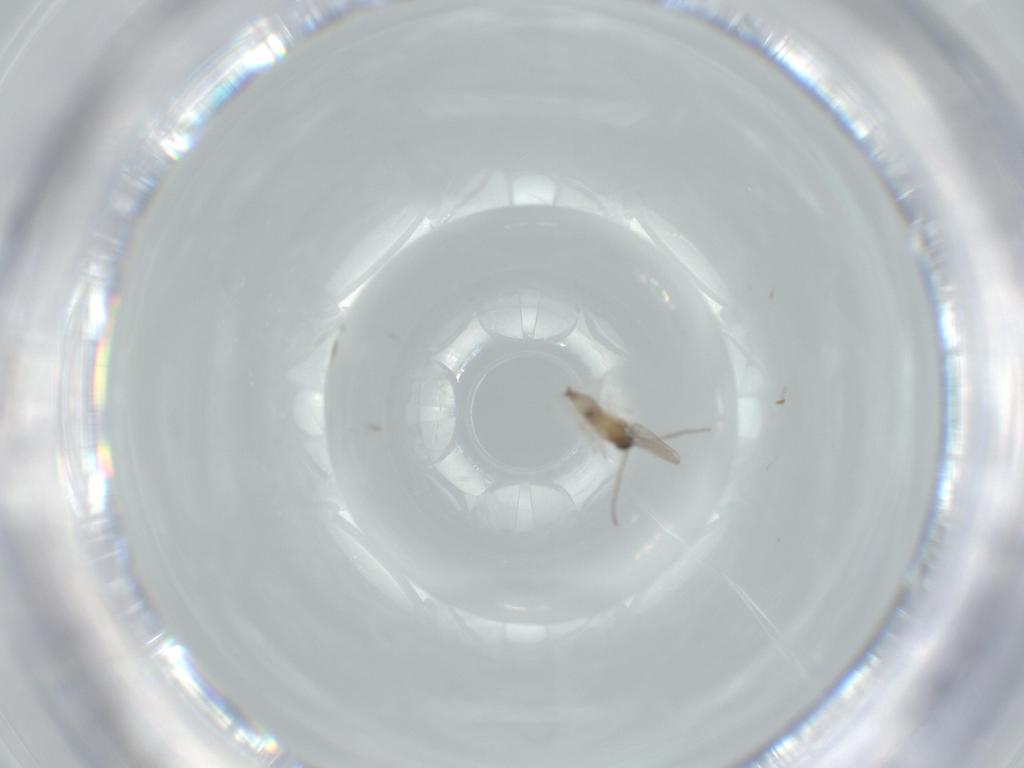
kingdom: Animalia
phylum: Arthropoda
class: Insecta
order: Diptera
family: Cecidomyiidae
